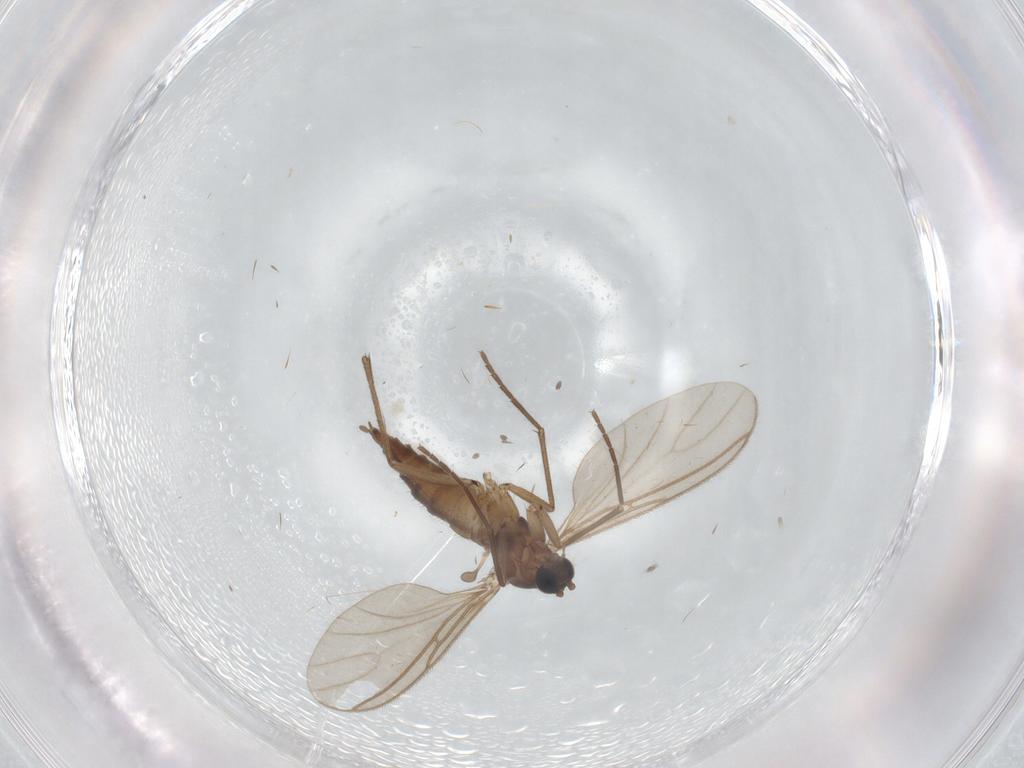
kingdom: Animalia
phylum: Arthropoda
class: Insecta
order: Diptera
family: Sciaridae
